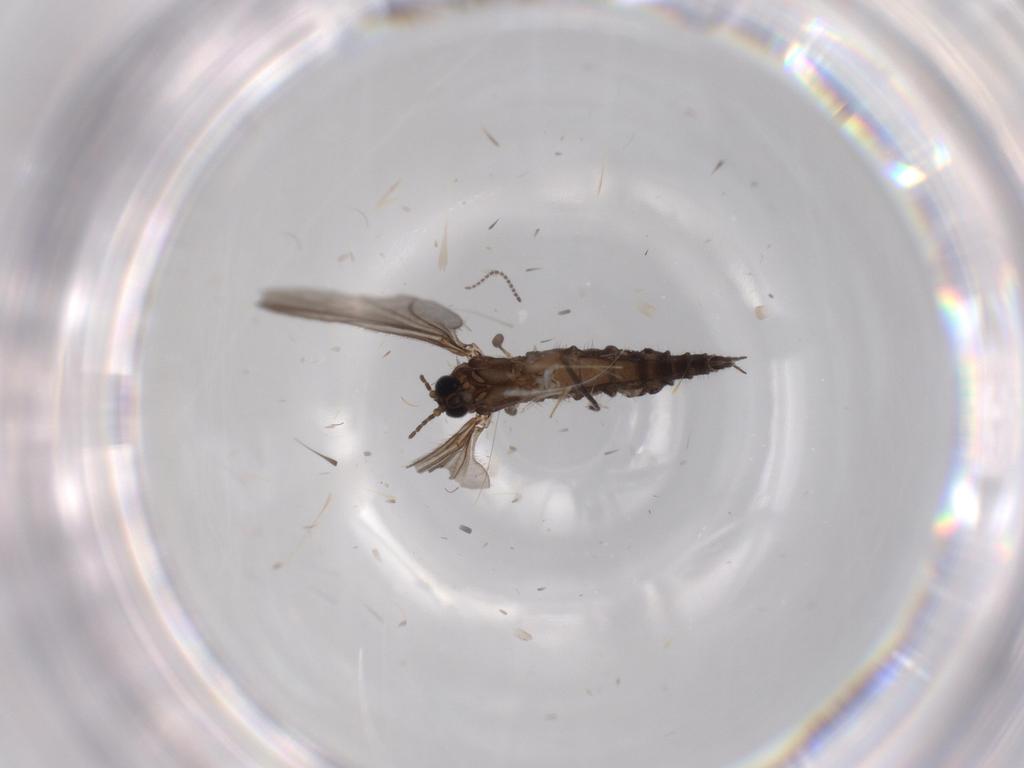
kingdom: Animalia
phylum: Arthropoda
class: Insecta
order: Diptera
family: Sciaridae
